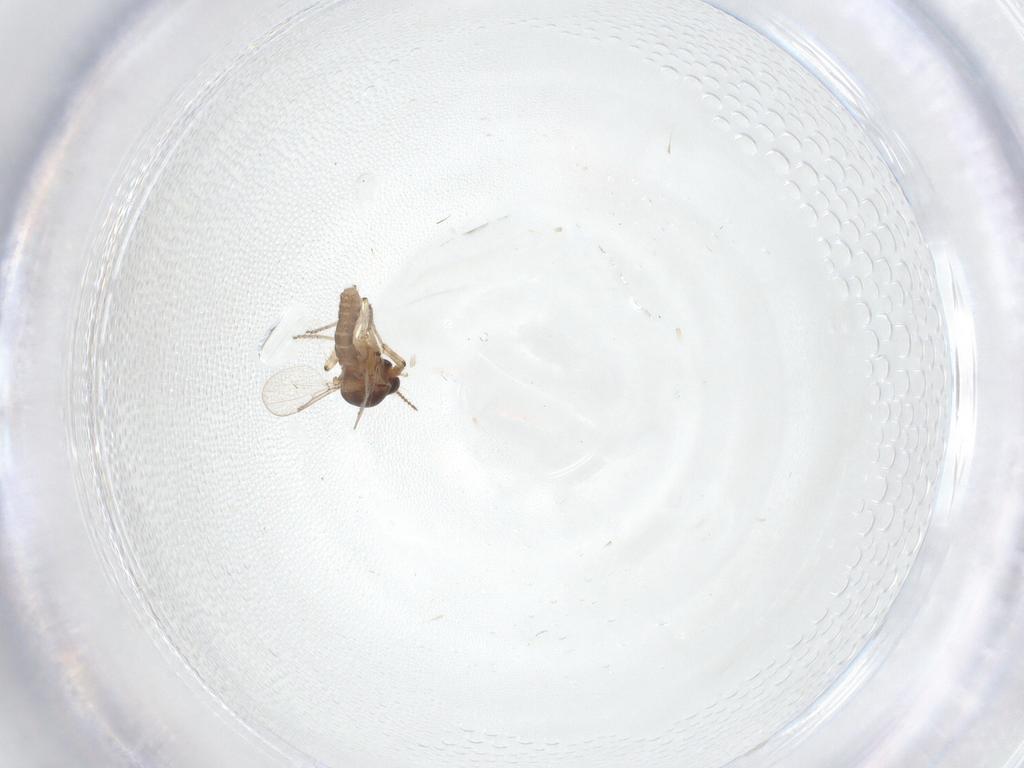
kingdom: Animalia
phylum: Arthropoda
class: Insecta
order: Diptera
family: Ceratopogonidae
